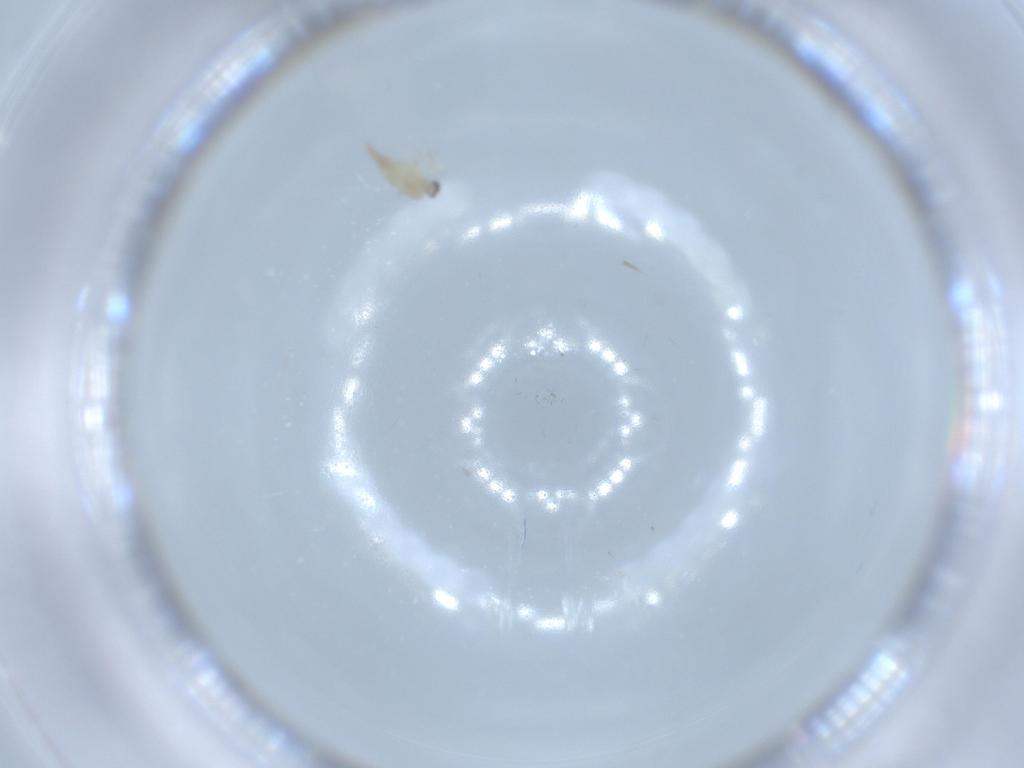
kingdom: Animalia
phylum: Arthropoda
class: Insecta
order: Diptera
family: Cecidomyiidae
